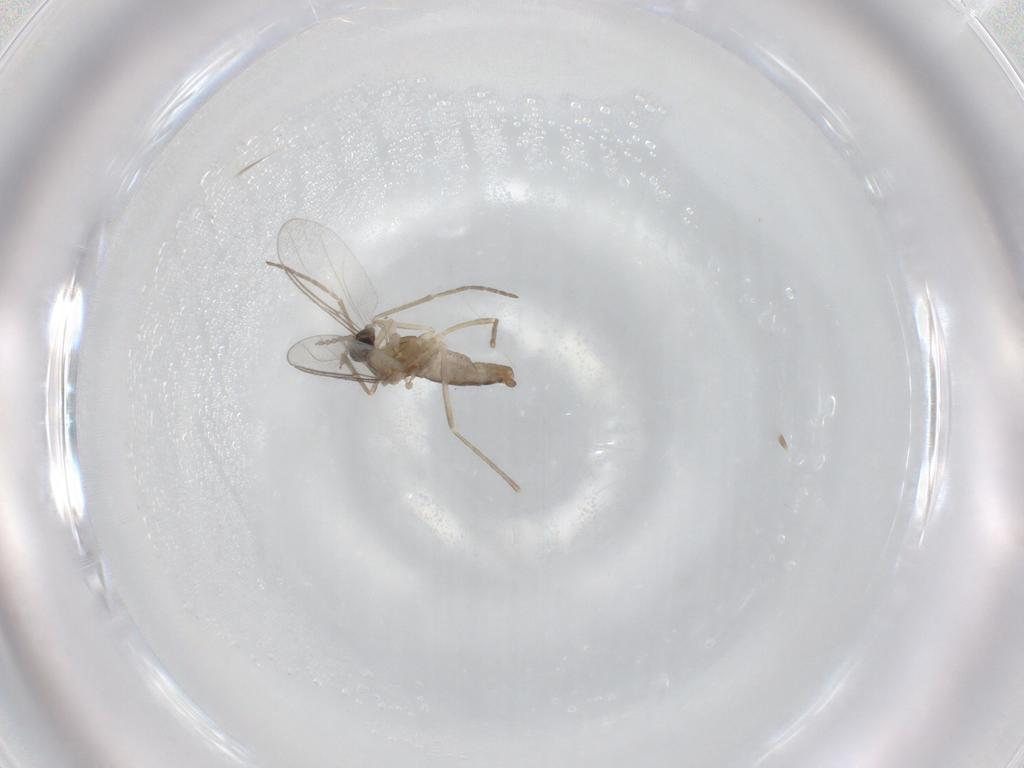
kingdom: Animalia
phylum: Arthropoda
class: Insecta
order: Diptera
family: Cecidomyiidae
